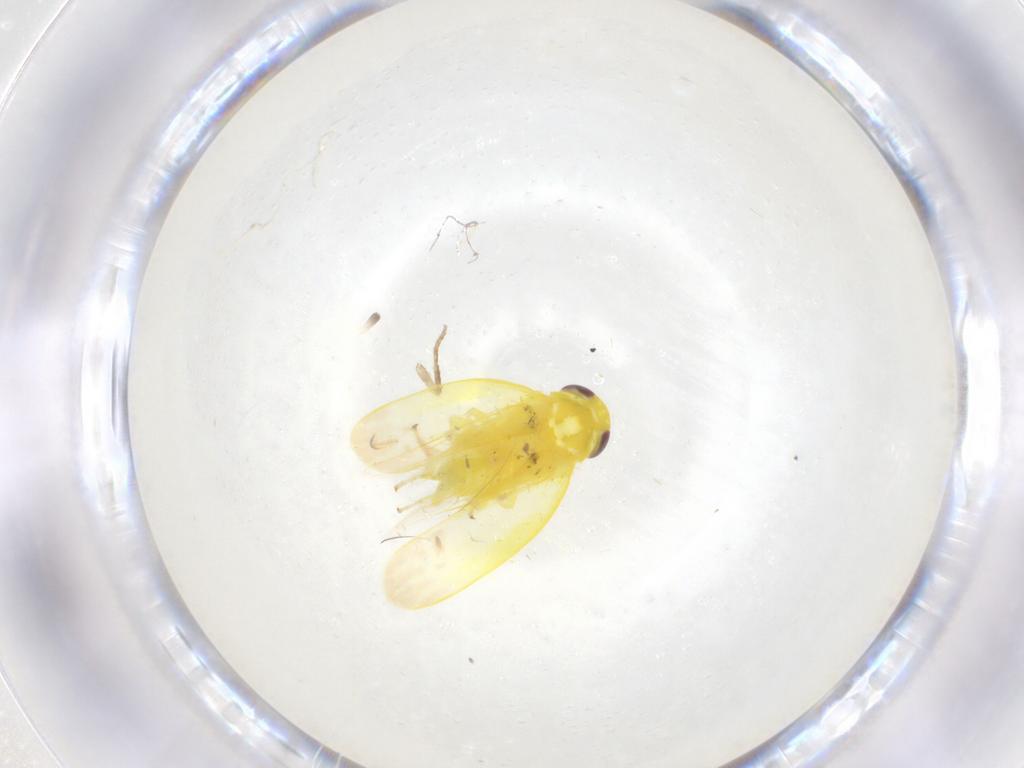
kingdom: Animalia
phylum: Arthropoda
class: Insecta
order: Hemiptera
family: Cicadellidae
